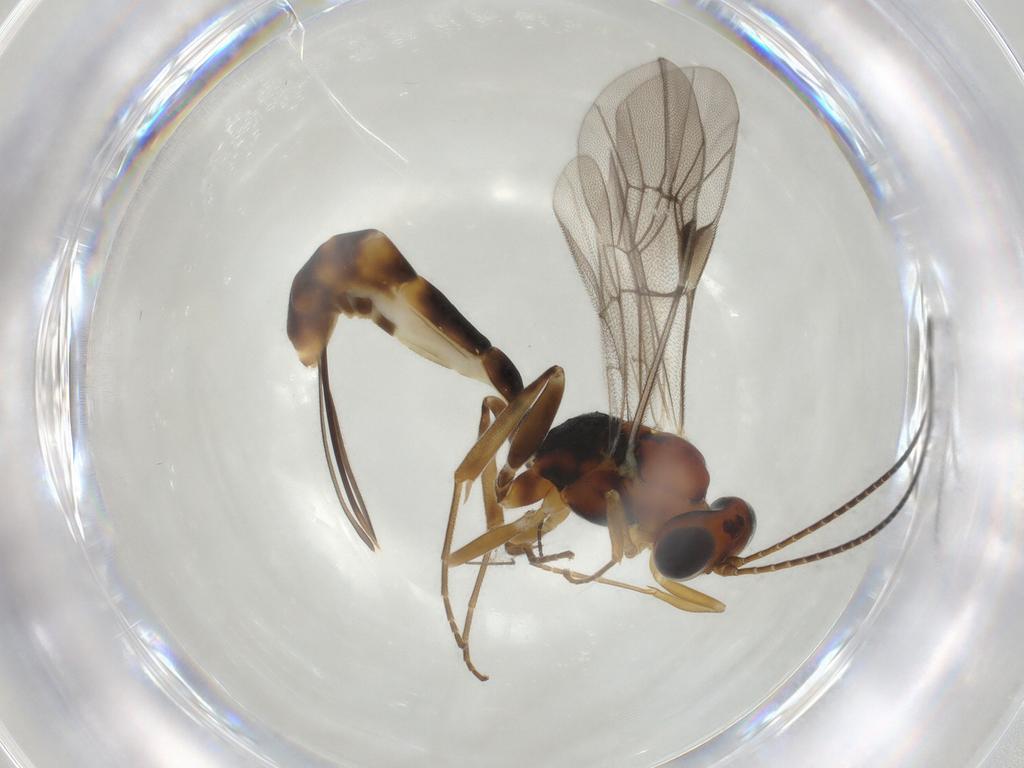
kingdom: Animalia
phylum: Arthropoda
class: Insecta
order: Hymenoptera
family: Ichneumonidae
